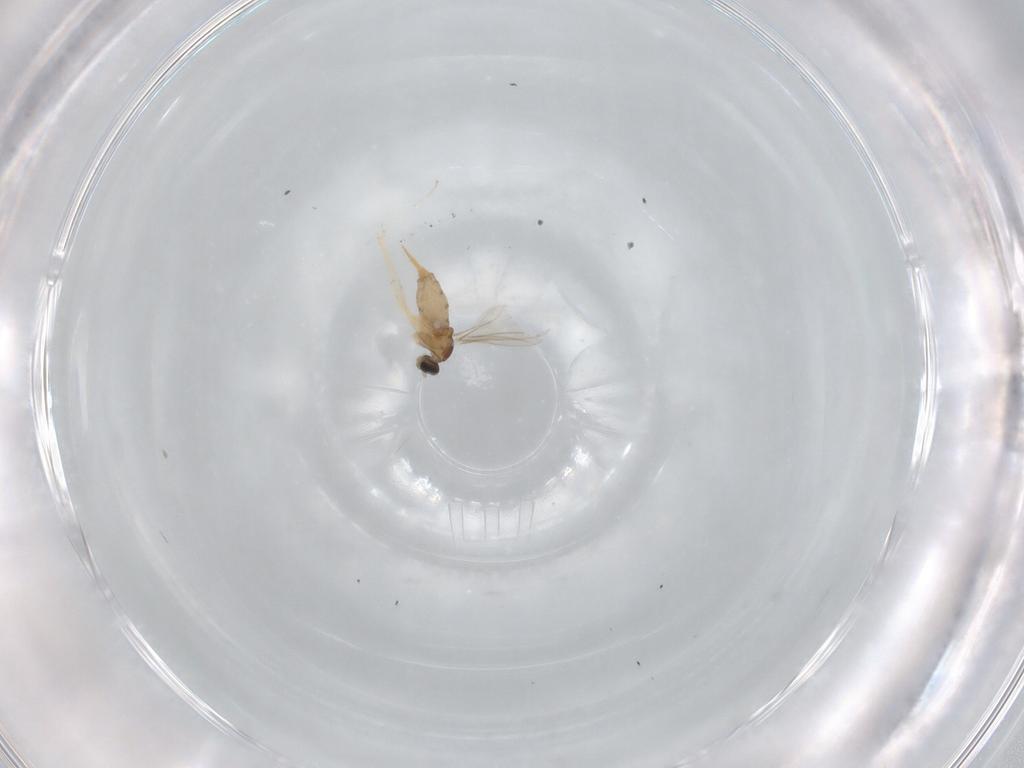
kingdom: Animalia
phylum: Arthropoda
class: Insecta
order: Diptera
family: Cecidomyiidae
